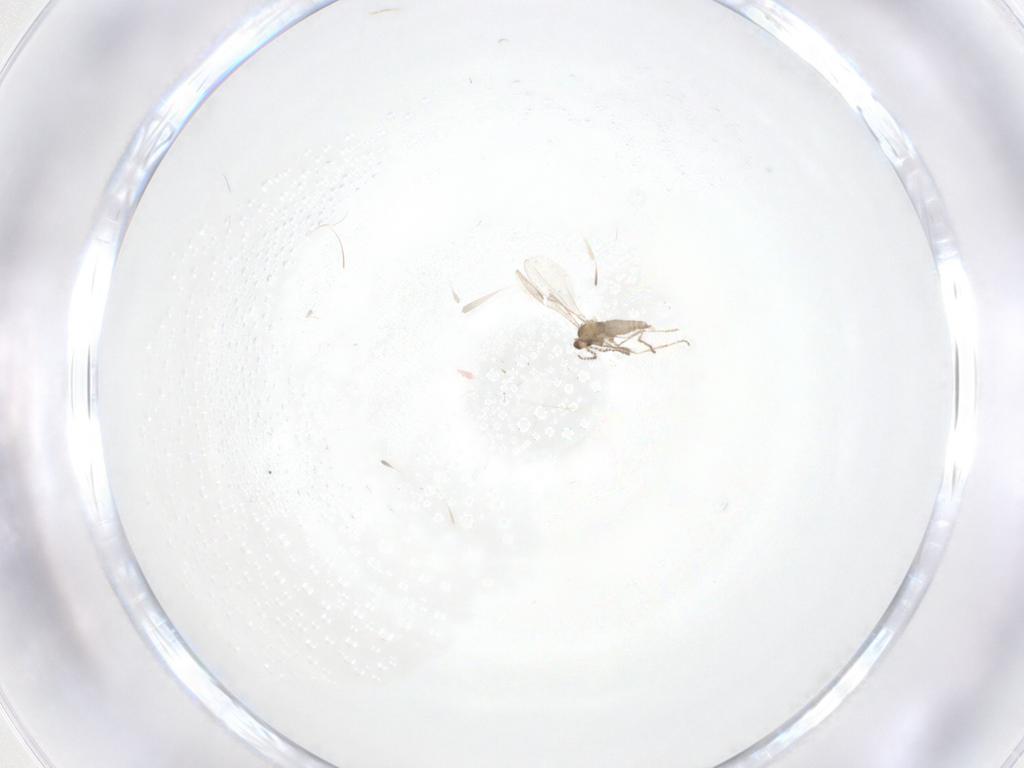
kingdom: Animalia
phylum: Arthropoda
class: Insecta
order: Diptera
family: Cecidomyiidae
